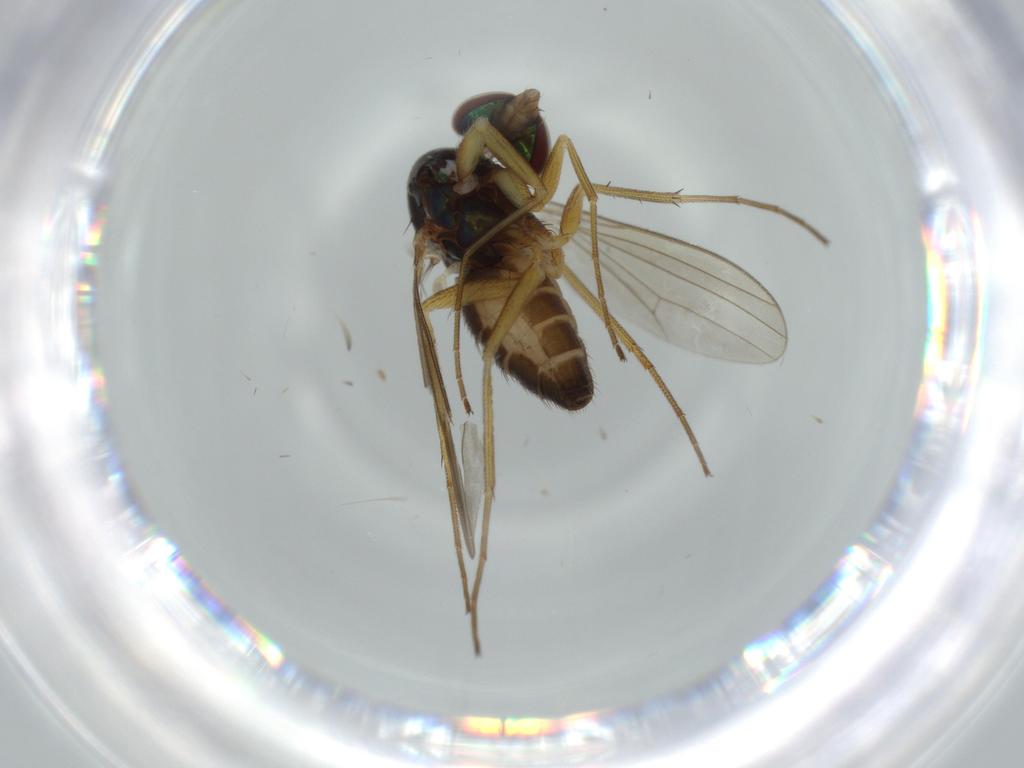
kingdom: Animalia
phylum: Arthropoda
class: Insecta
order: Diptera
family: Dolichopodidae
